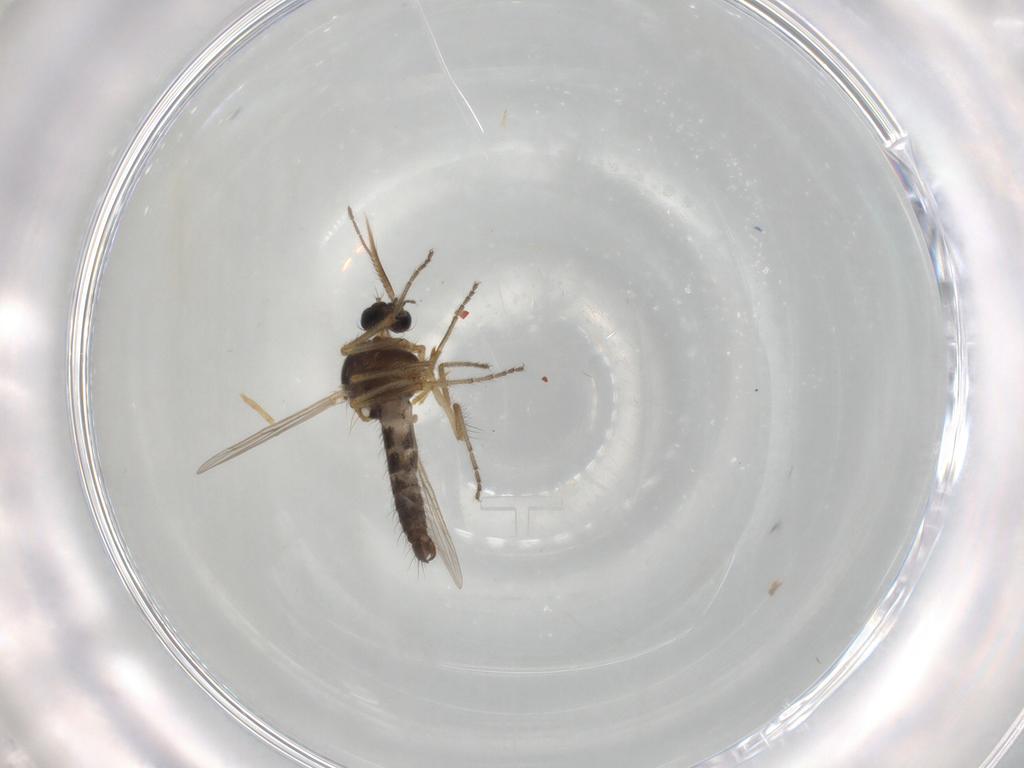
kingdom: Animalia
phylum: Arthropoda
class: Insecta
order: Diptera
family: Ceratopogonidae
